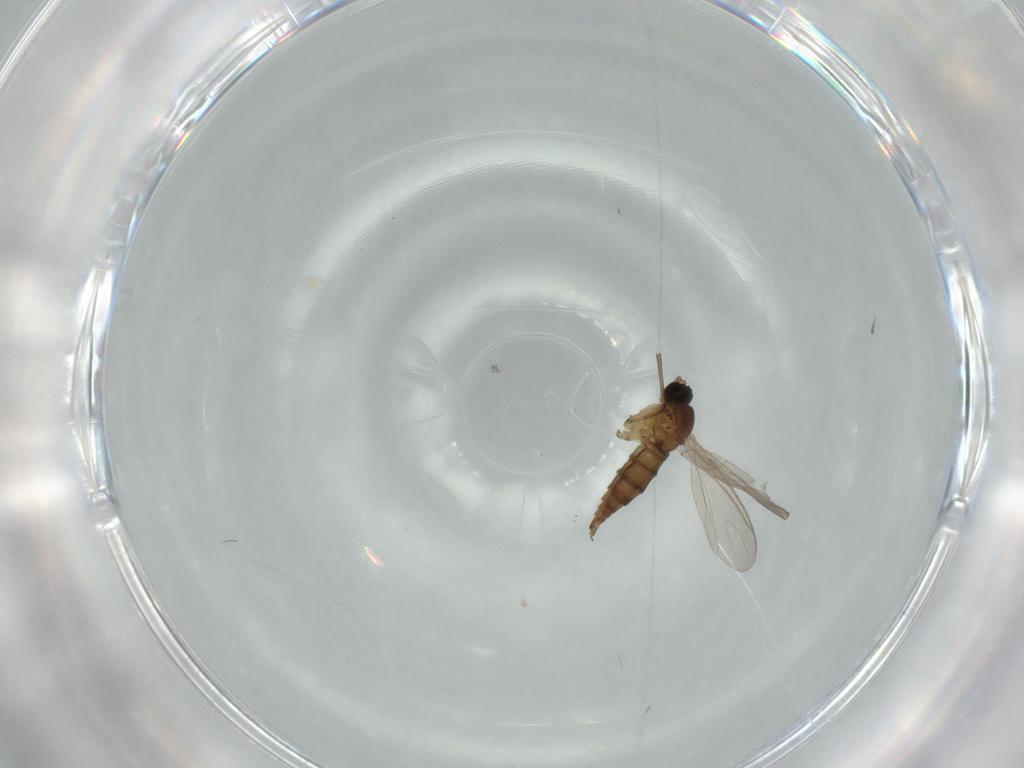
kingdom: Animalia
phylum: Arthropoda
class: Insecta
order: Diptera
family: Sciaridae
